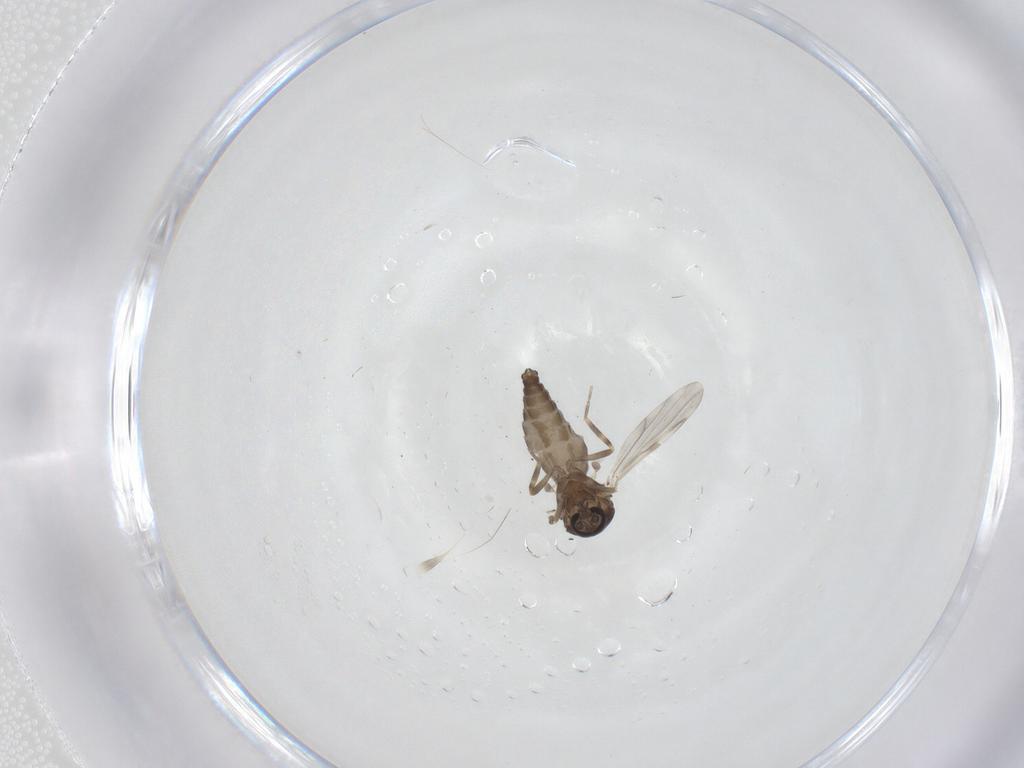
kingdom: Animalia
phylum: Arthropoda
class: Insecta
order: Diptera
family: Ceratopogonidae
